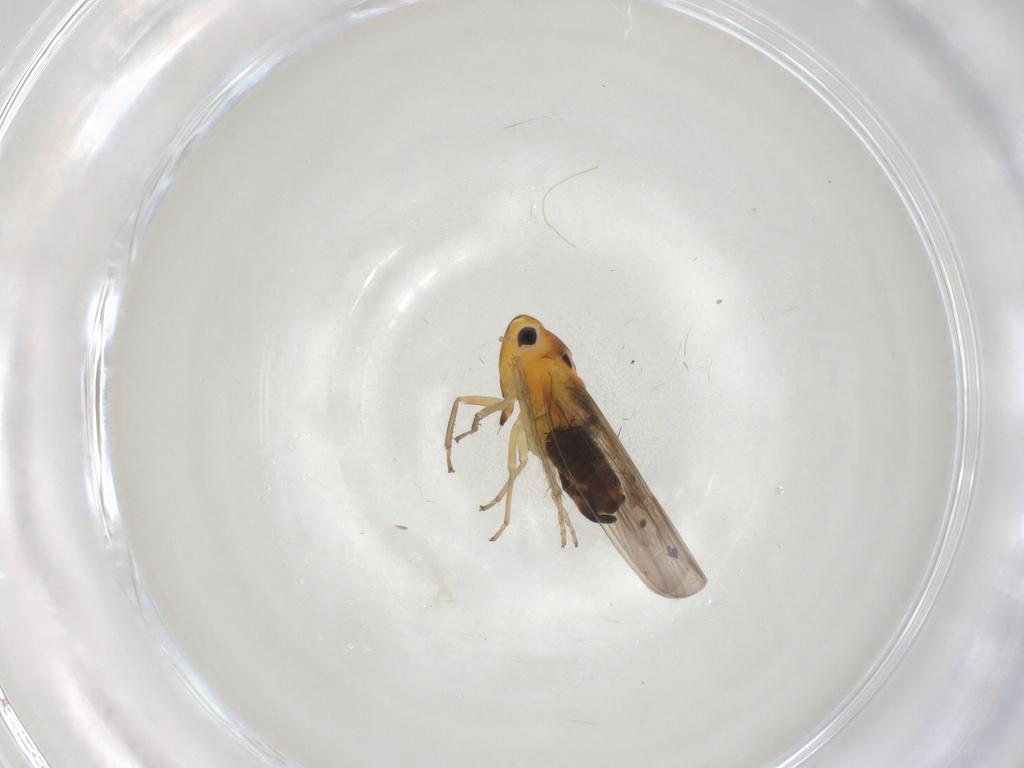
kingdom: Animalia
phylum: Arthropoda
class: Insecta
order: Hemiptera
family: Cicadellidae
